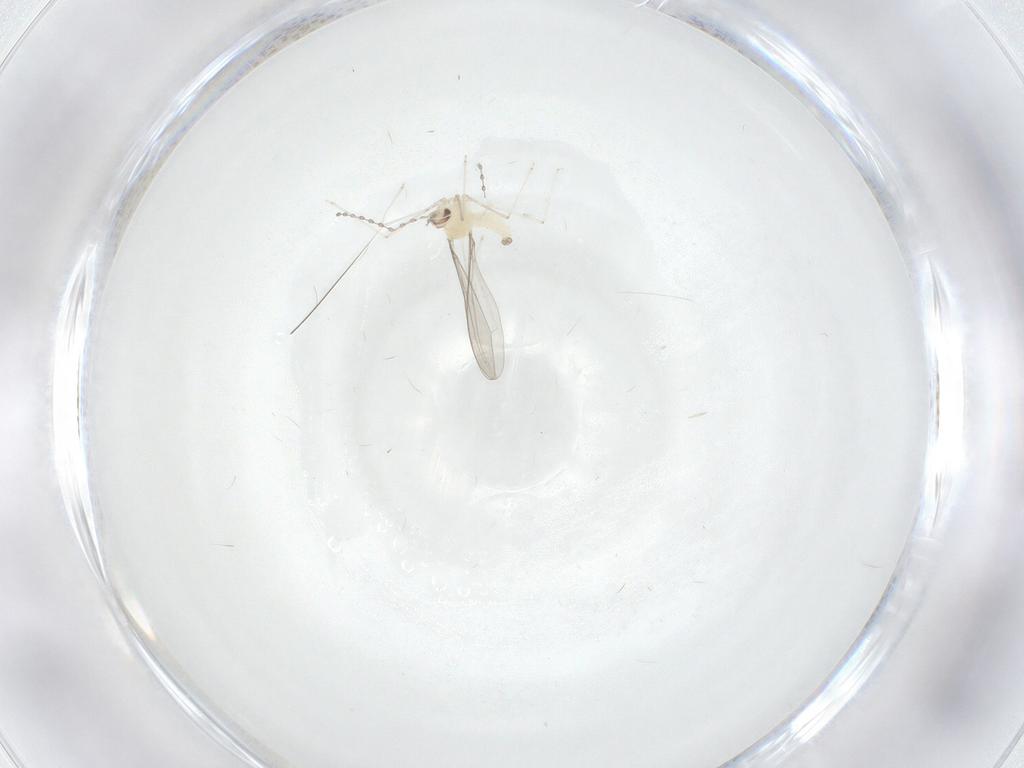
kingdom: Animalia
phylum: Arthropoda
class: Insecta
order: Diptera
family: Cecidomyiidae
